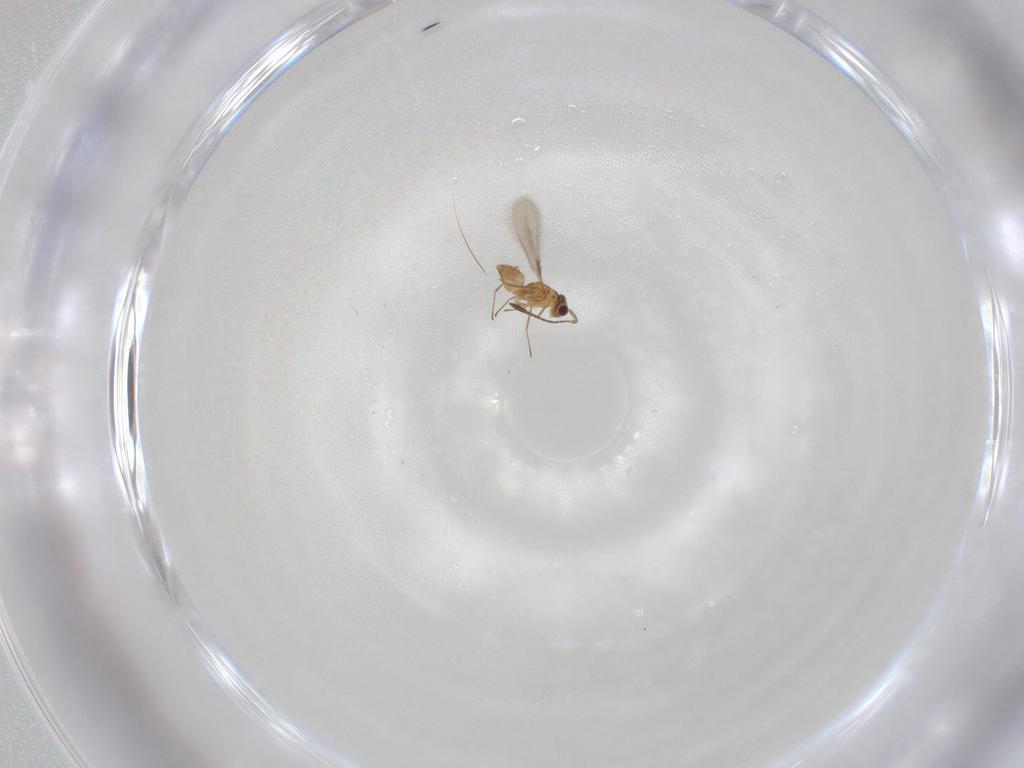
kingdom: Animalia
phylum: Arthropoda
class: Insecta
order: Hymenoptera
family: Mymaridae
